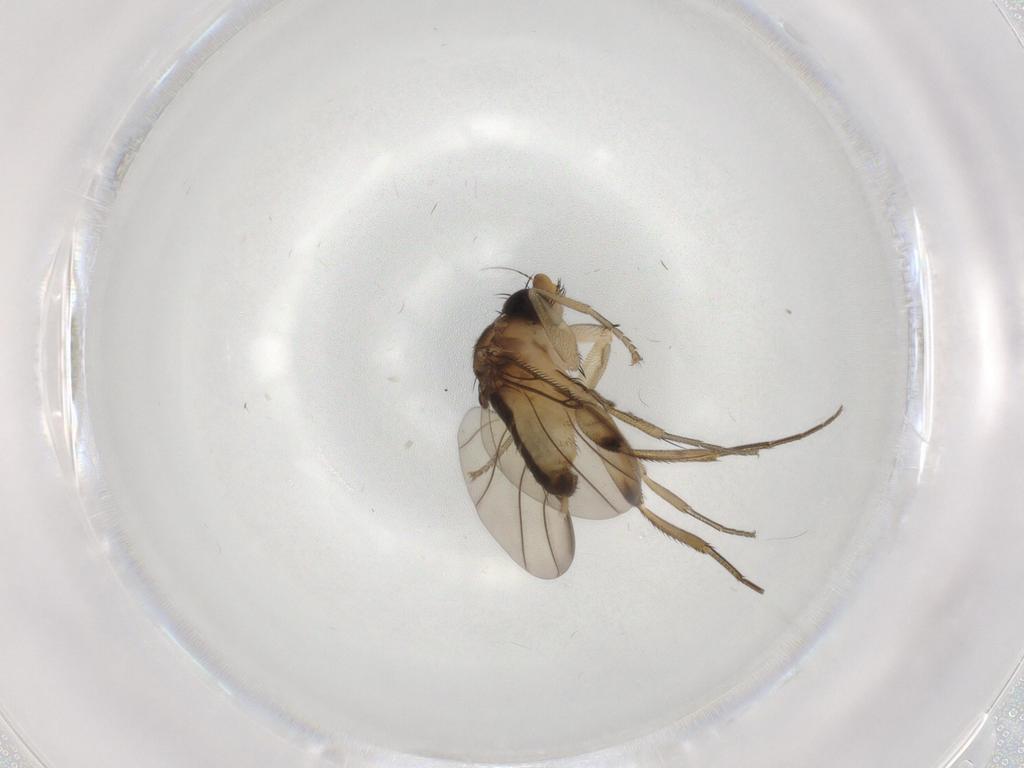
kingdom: Animalia
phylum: Arthropoda
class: Insecta
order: Diptera
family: Phoridae
